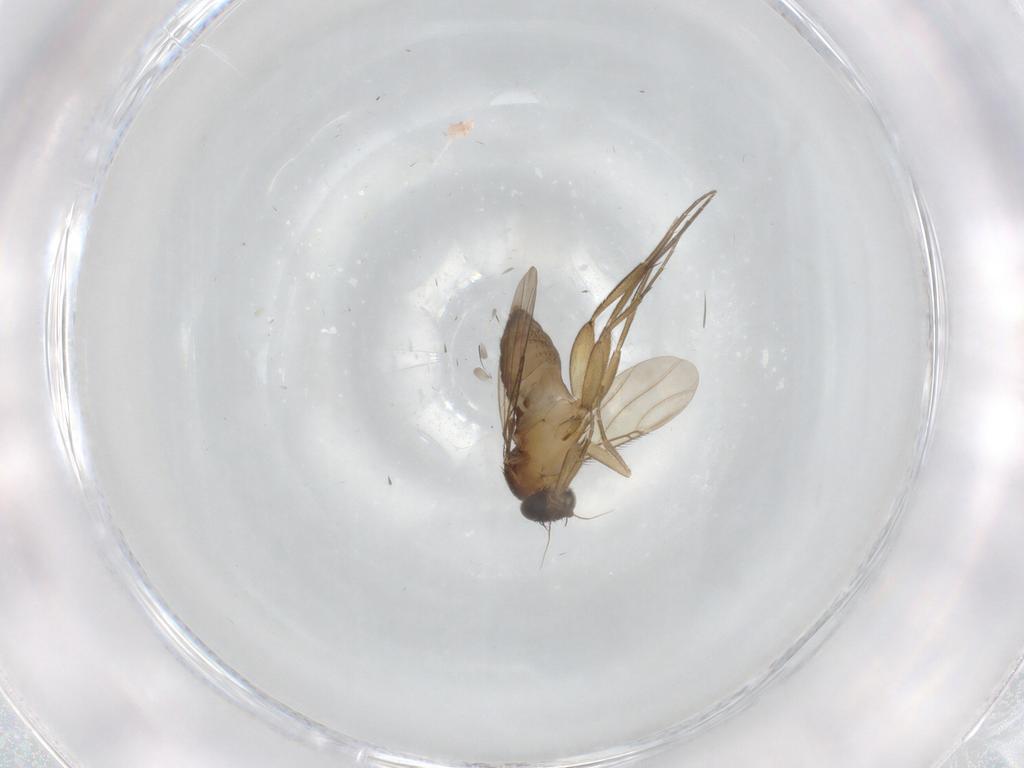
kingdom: Animalia
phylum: Arthropoda
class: Insecta
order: Diptera
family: Phoridae
